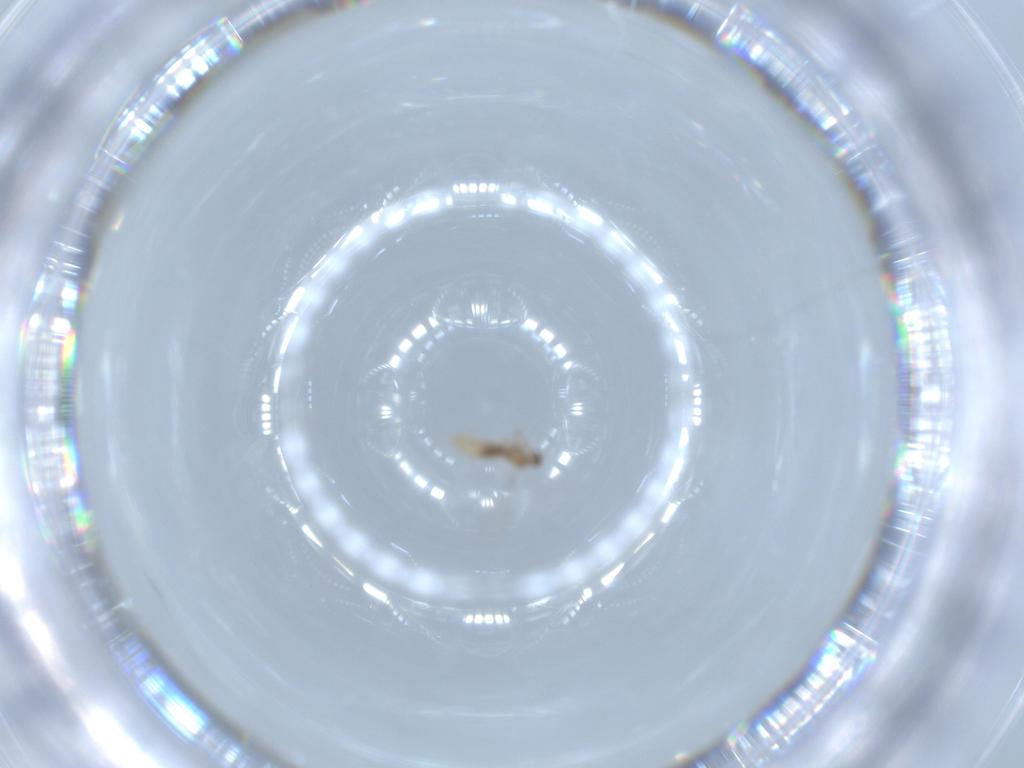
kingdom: Animalia
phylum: Arthropoda
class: Insecta
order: Diptera
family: Cecidomyiidae
